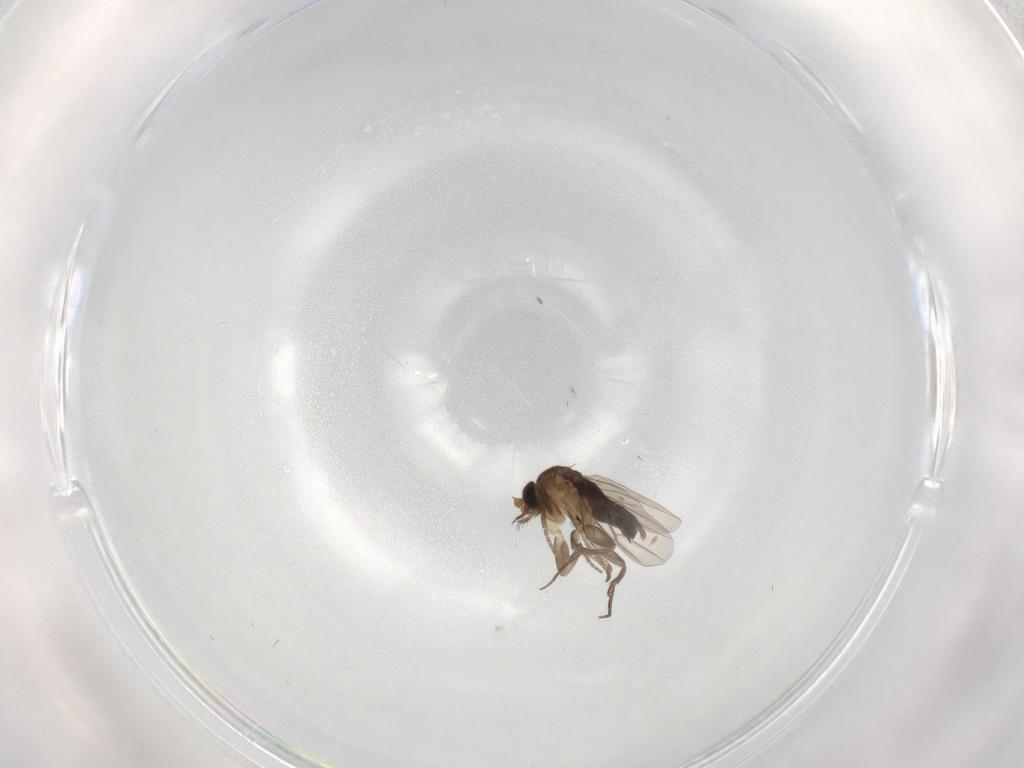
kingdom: Animalia
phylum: Arthropoda
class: Insecta
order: Diptera
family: Phoridae
